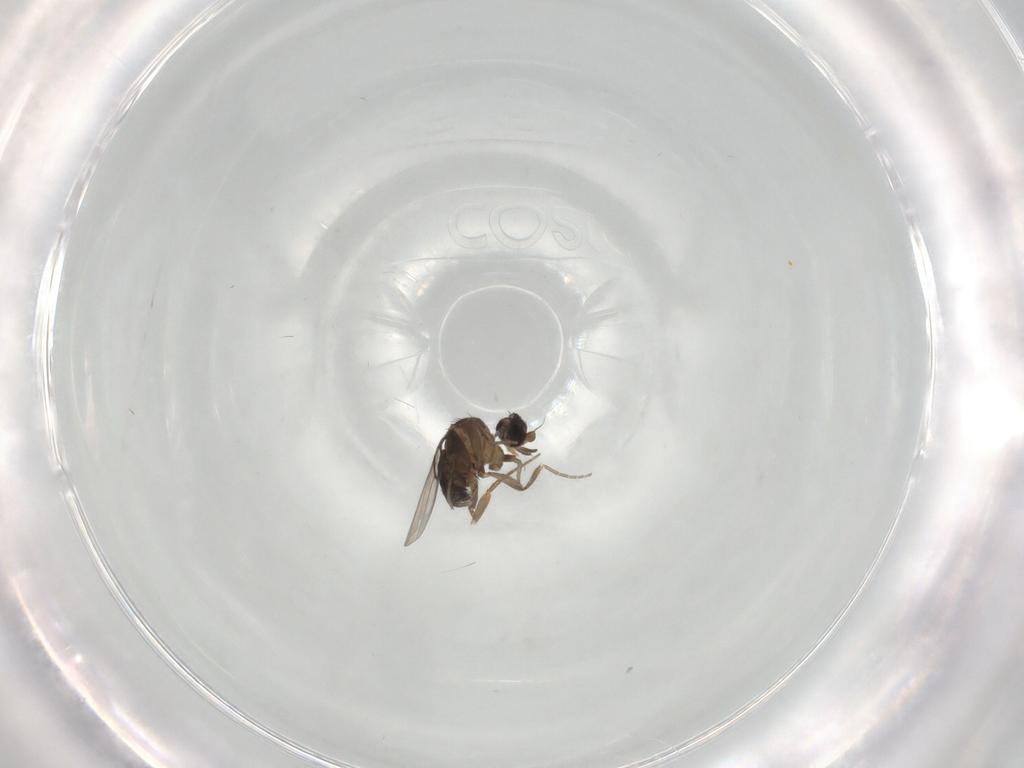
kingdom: Animalia
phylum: Arthropoda
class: Insecta
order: Diptera
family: Phoridae
